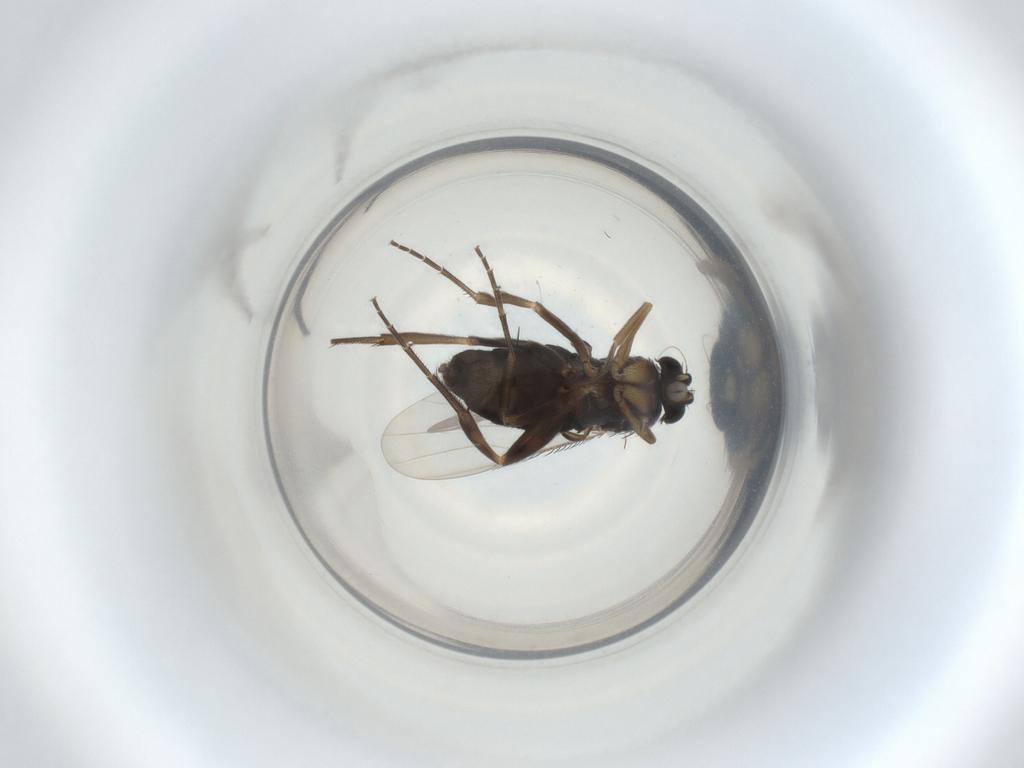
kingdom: Animalia
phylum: Arthropoda
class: Insecta
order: Diptera
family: Phoridae
